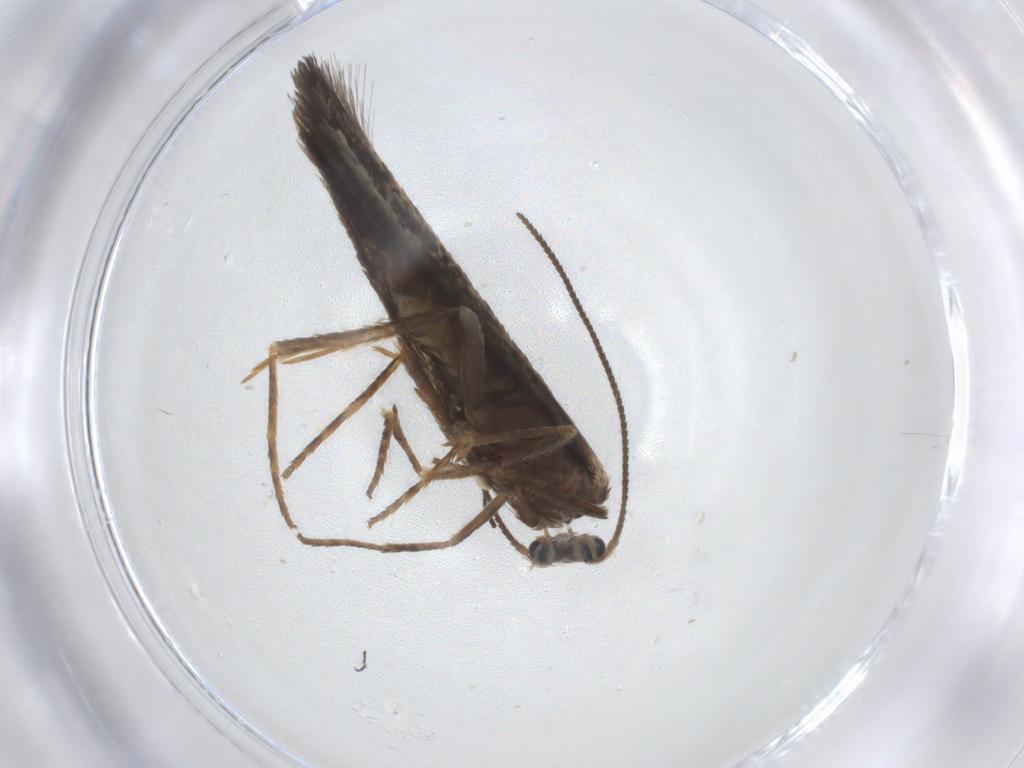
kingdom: Animalia
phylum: Arthropoda
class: Insecta
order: Lepidoptera
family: Nepticulidae
